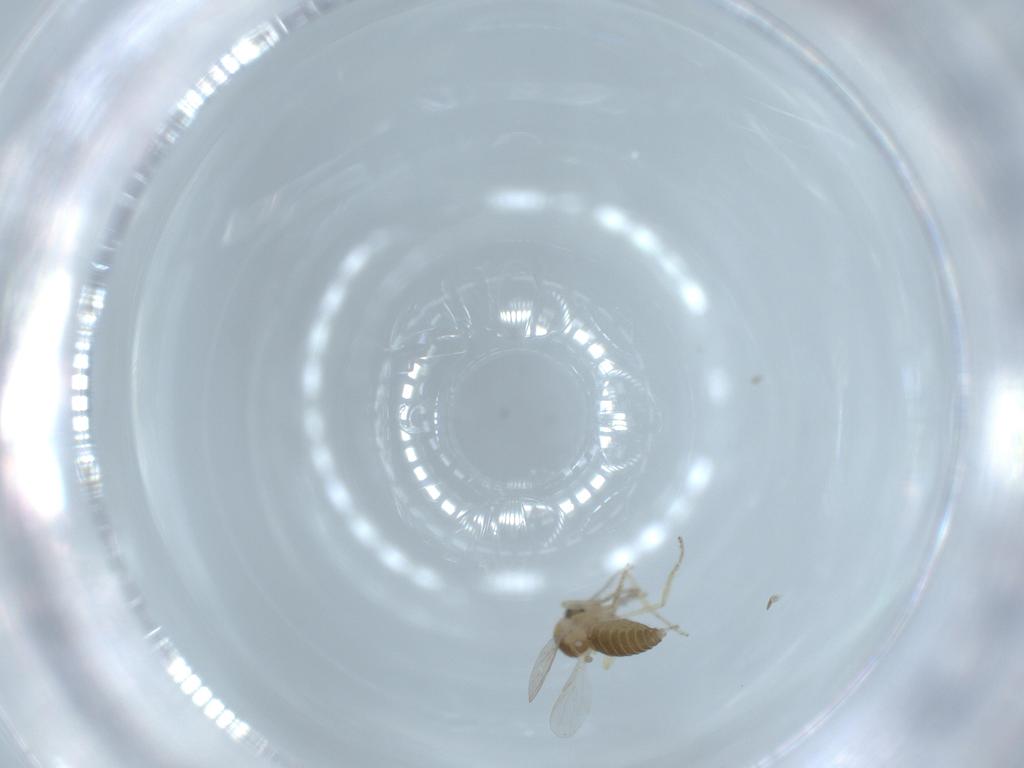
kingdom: Animalia
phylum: Arthropoda
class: Insecta
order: Diptera
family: Ceratopogonidae
